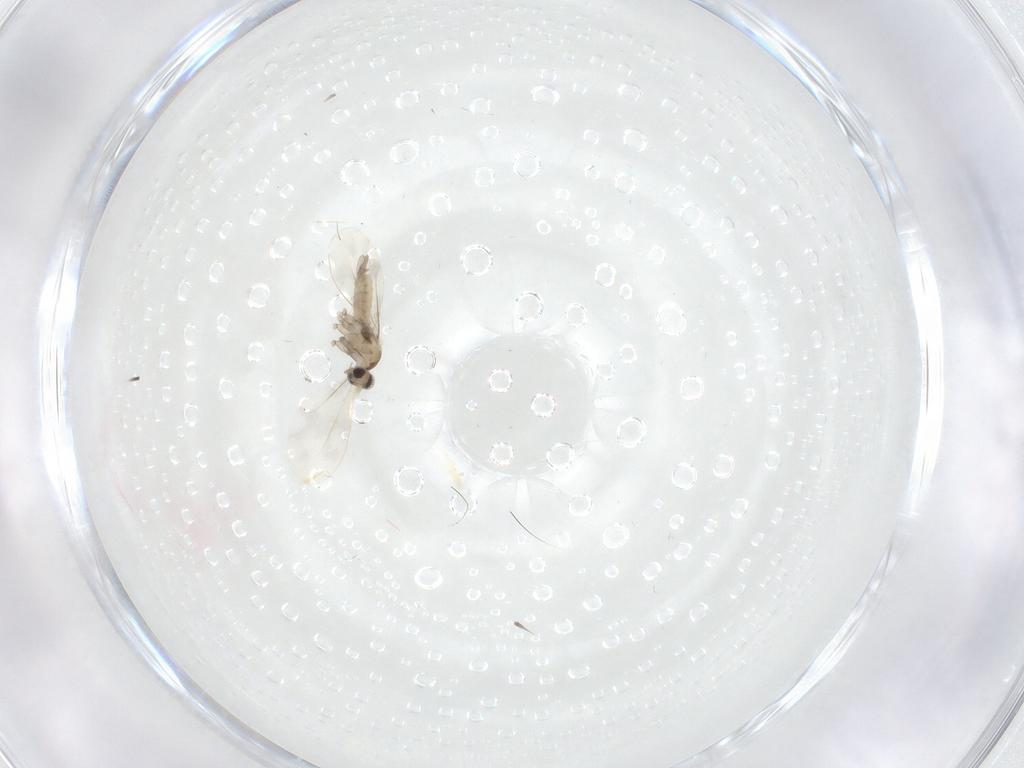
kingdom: Animalia
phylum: Arthropoda
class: Insecta
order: Diptera
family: Cecidomyiidae
